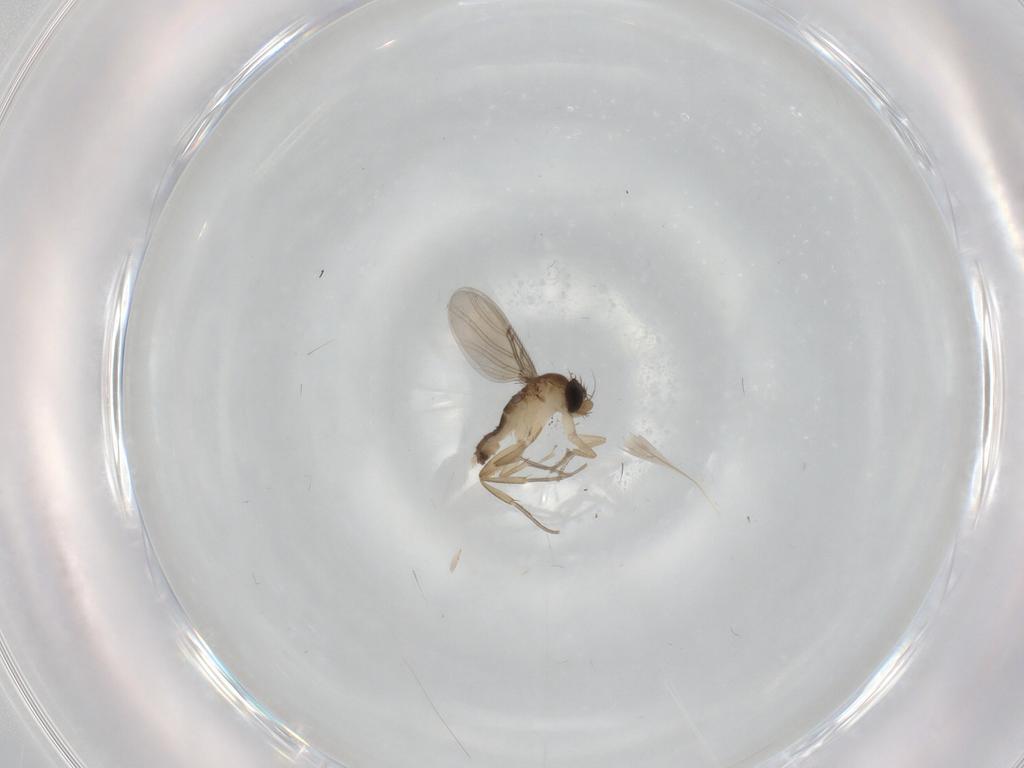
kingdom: Animalia
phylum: Arthropoda
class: Insecta
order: Diptera
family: Phoridae
